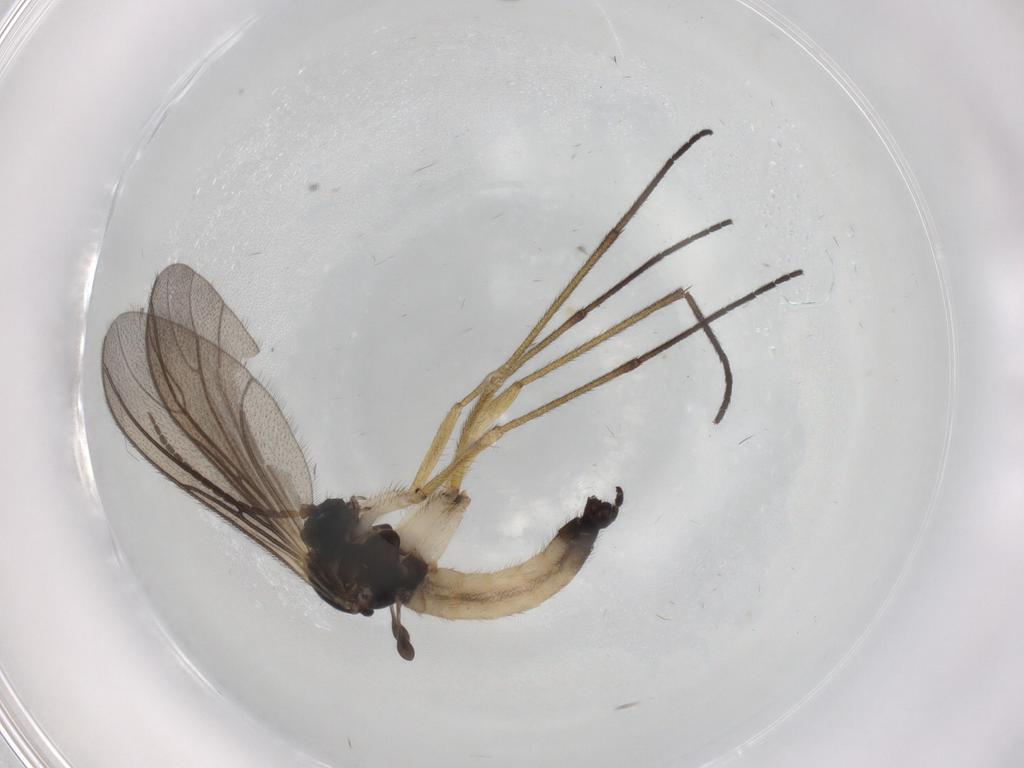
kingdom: Animalia
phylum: Arthropoda
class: Insecta
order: Diptera
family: Sciaridae
